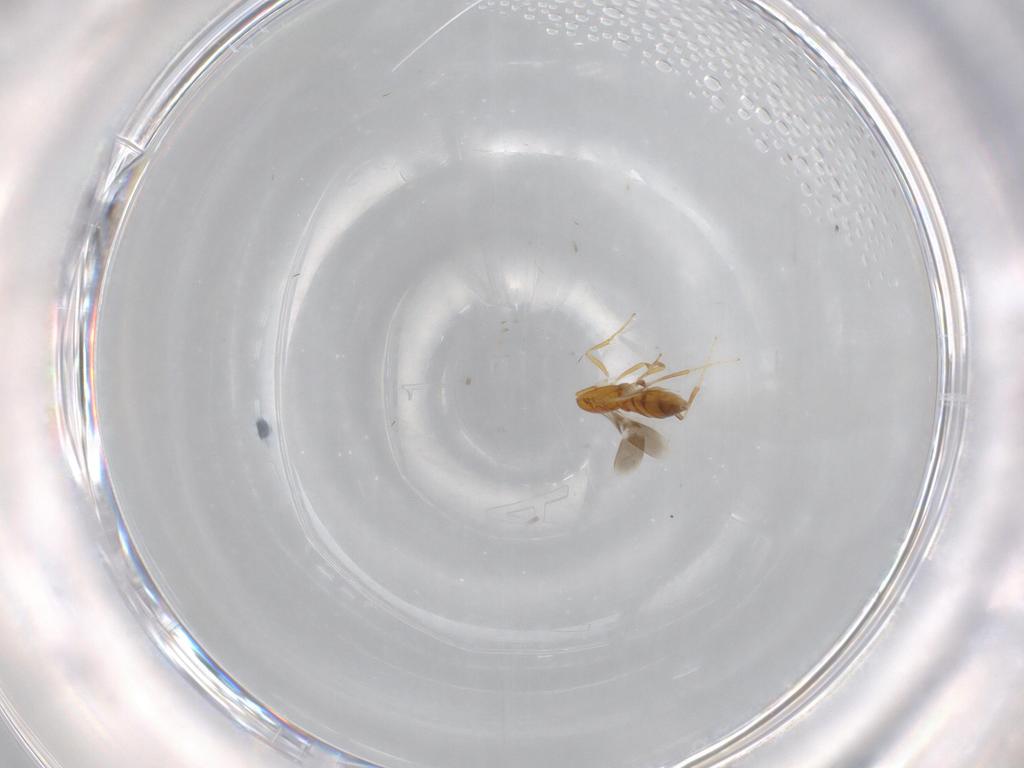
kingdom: Animalia
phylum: Arthropoda
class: Insecta
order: Hymenoptera
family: Scelionidae
